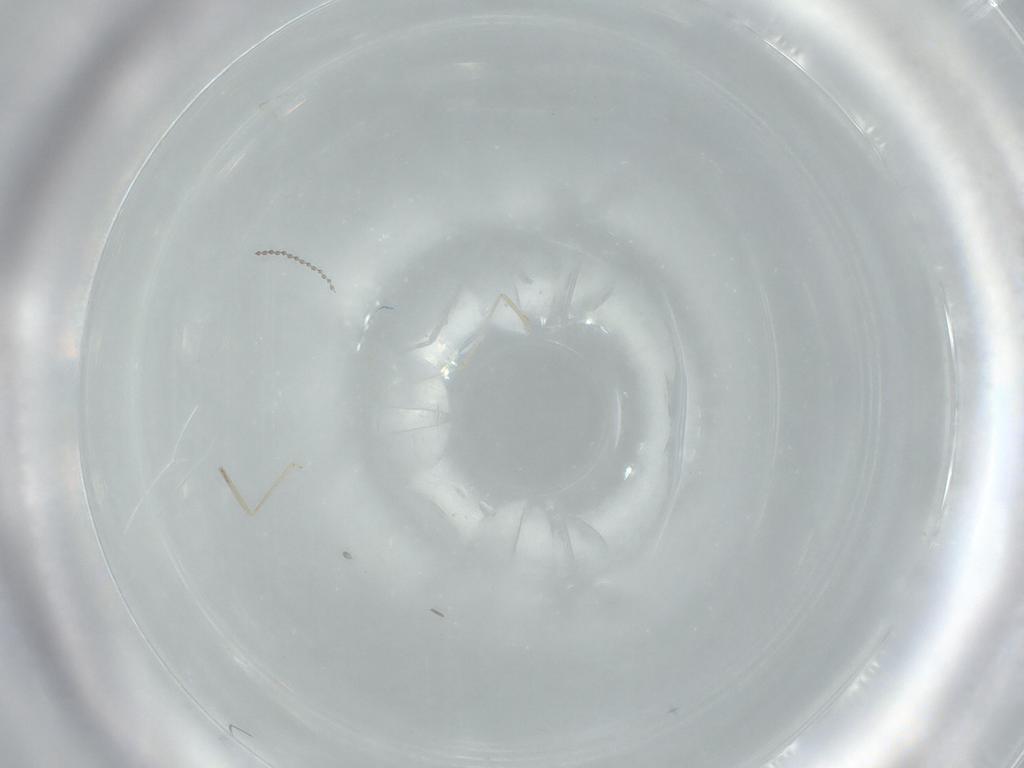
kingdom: Animalia
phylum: Arthropoda
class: Insecta
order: Diptera
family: Cecidomyiidae
